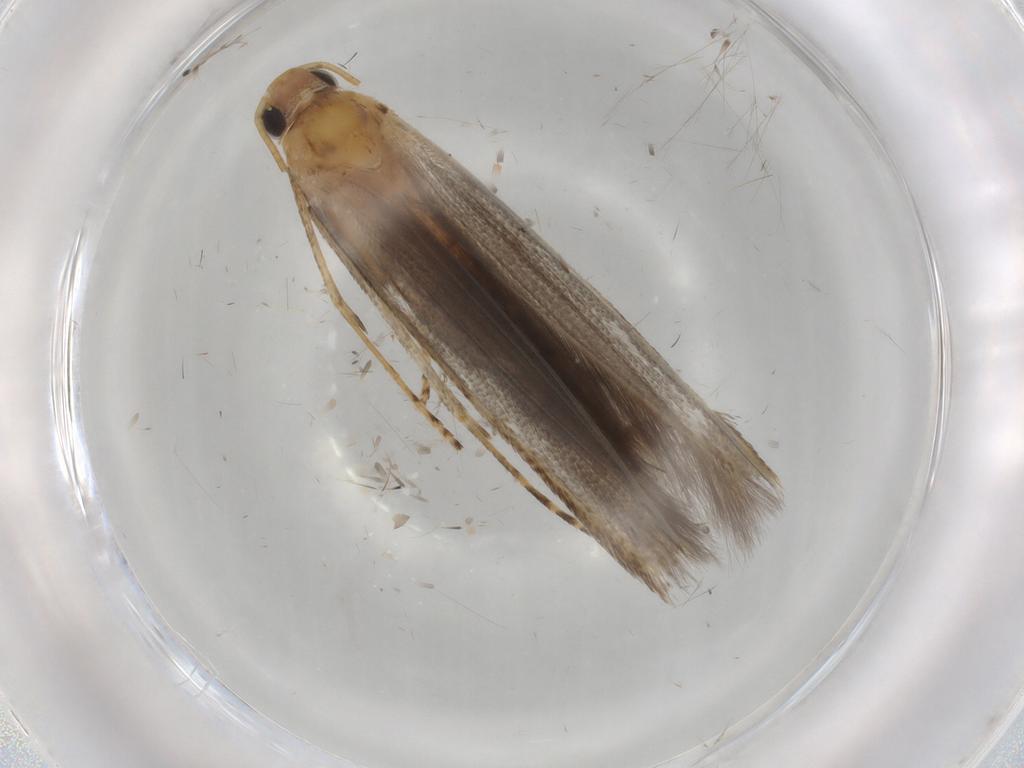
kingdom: Animalia
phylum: Arthropoda
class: Insecta
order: Lepidoptera
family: Batrachedridae
